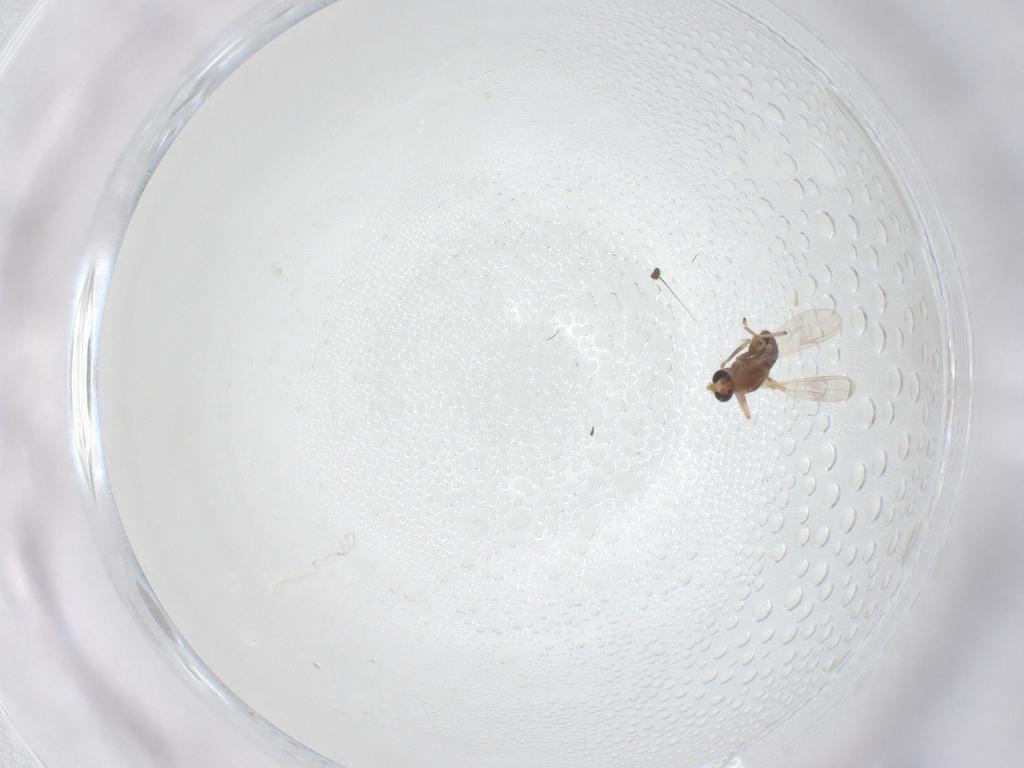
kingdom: Animalia
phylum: Arthropoda
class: Insecta
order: Diptera
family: Chironomidae
